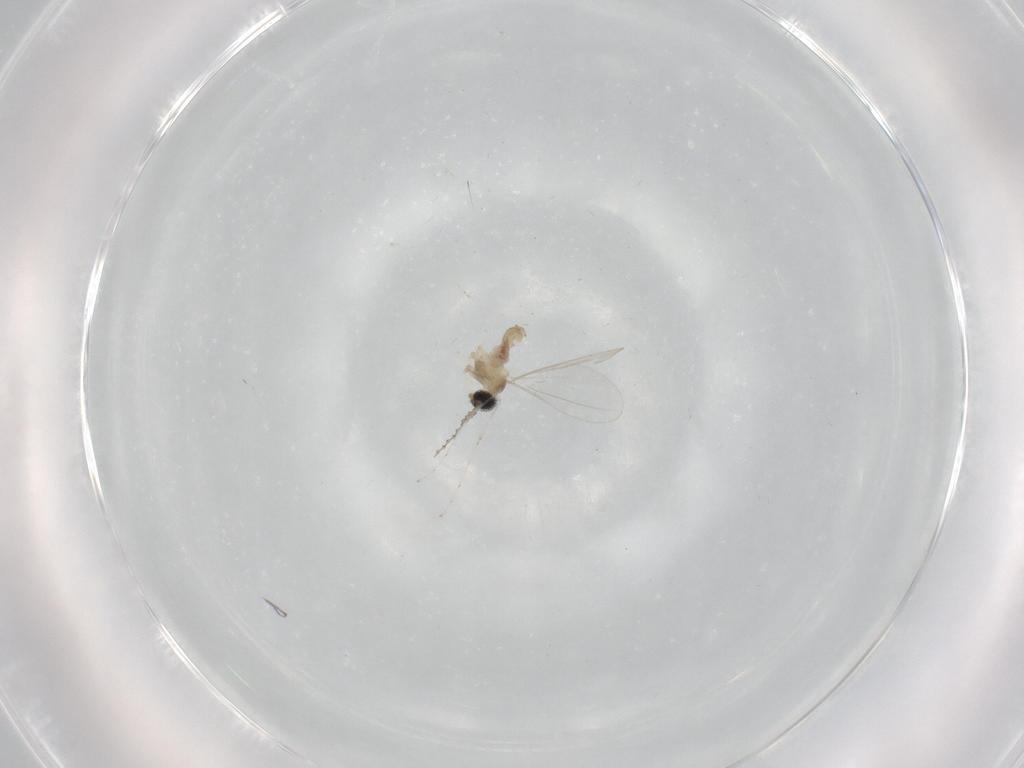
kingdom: Animalia
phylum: Arthropoda
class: Insecta
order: Diptera
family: Cecidomyiidae
